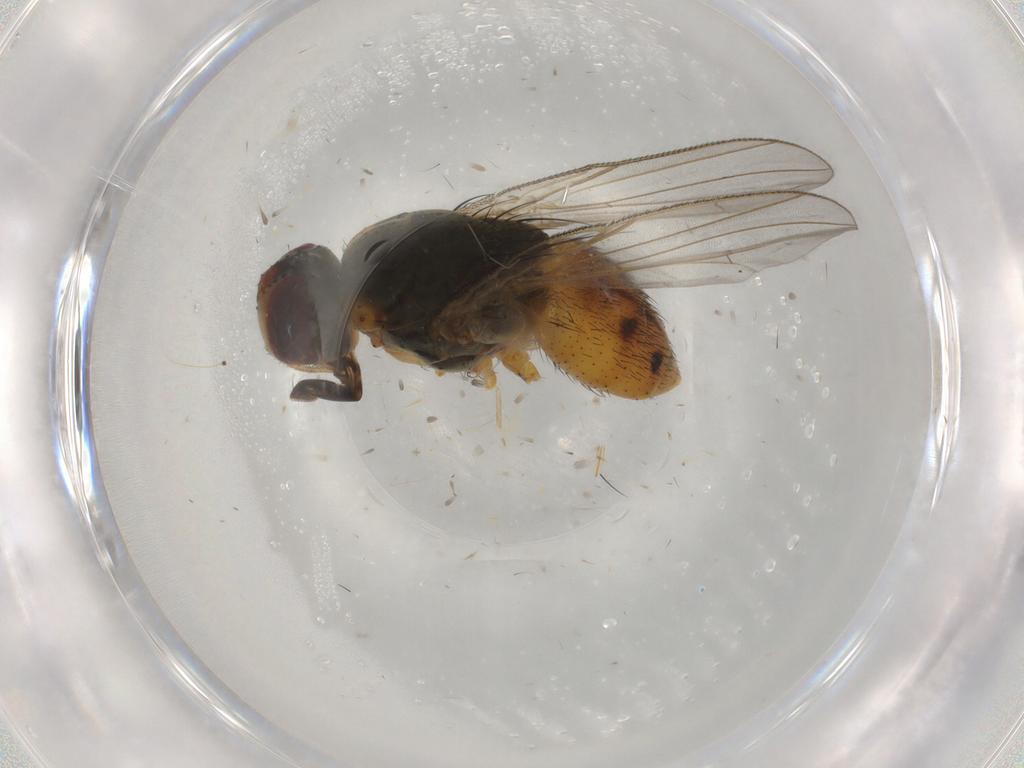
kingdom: Animalia
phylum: Arthropoda
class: Insecta
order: Diptera
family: Muscidae
